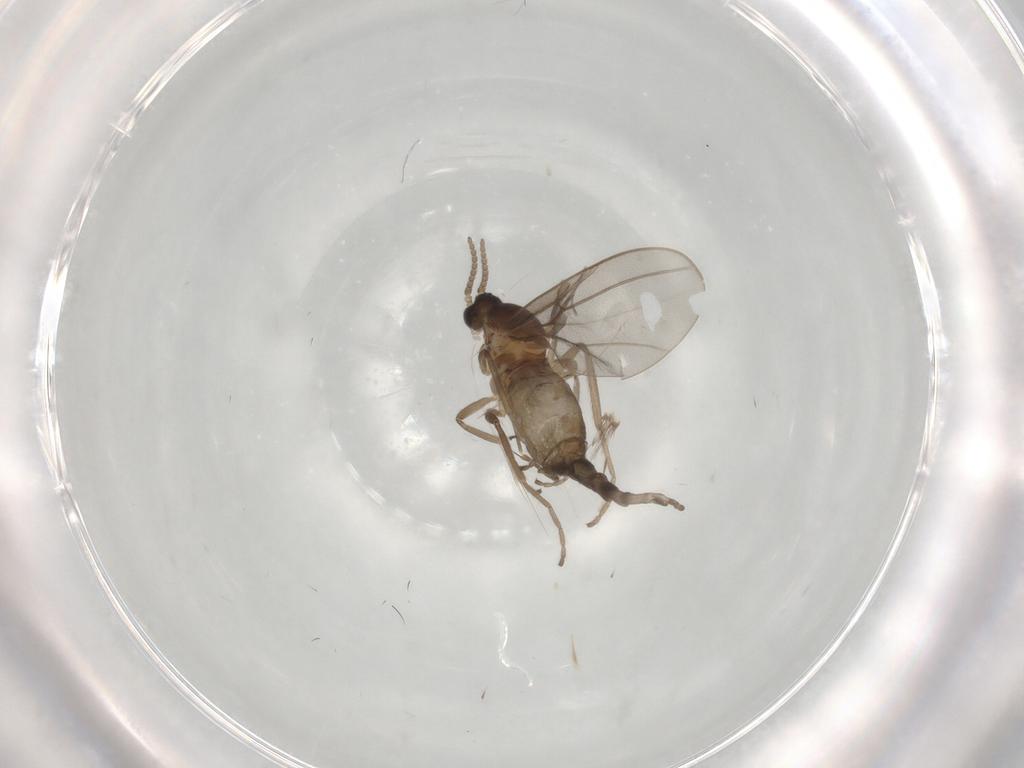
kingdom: Animalia
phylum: Arthropoda
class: Insecta
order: Diptera
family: Cecidomyiidae
